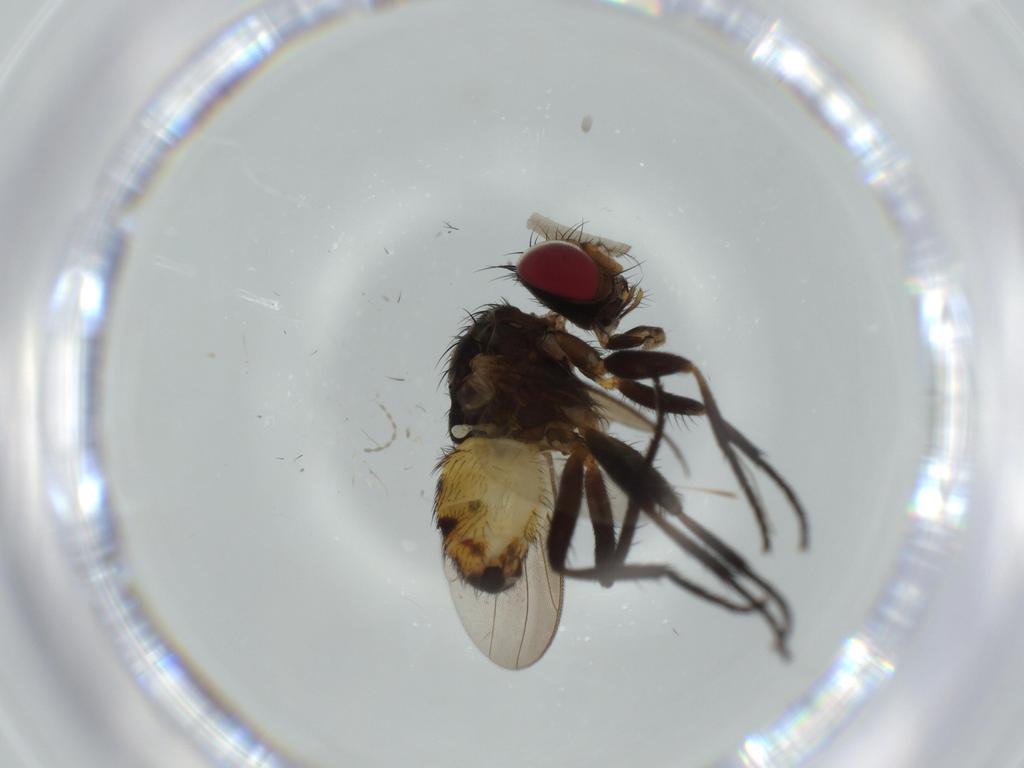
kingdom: Animalia
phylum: Arthropoda
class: Insecta
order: Diptera
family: Anthomyiidae
